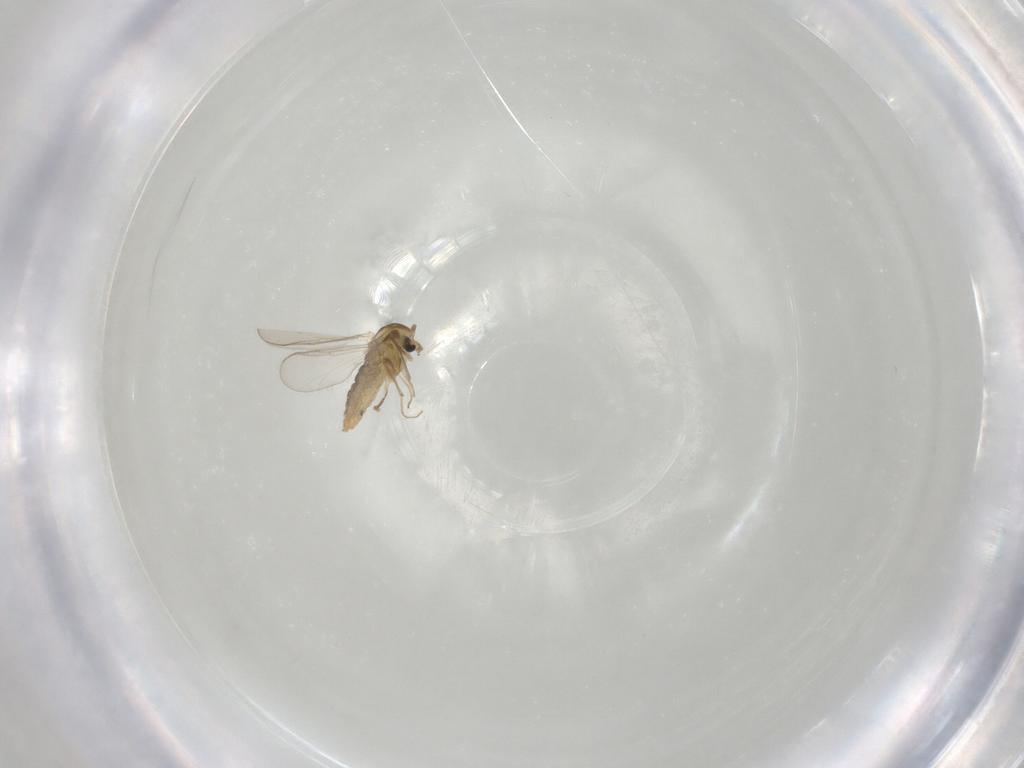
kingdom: Animalia
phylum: Arthropoda
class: Insecta
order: Diptera
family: Chironomidae
